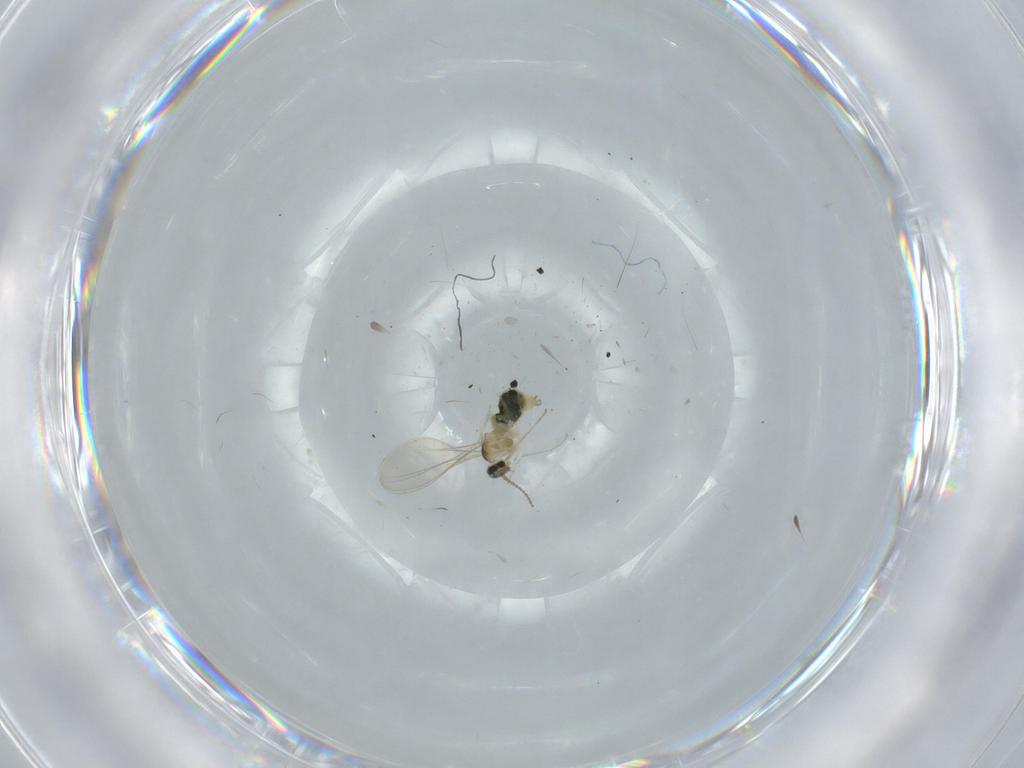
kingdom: Animalia
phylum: Arthropoda
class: Insecta
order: Diptera
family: Cecidomyiidae
